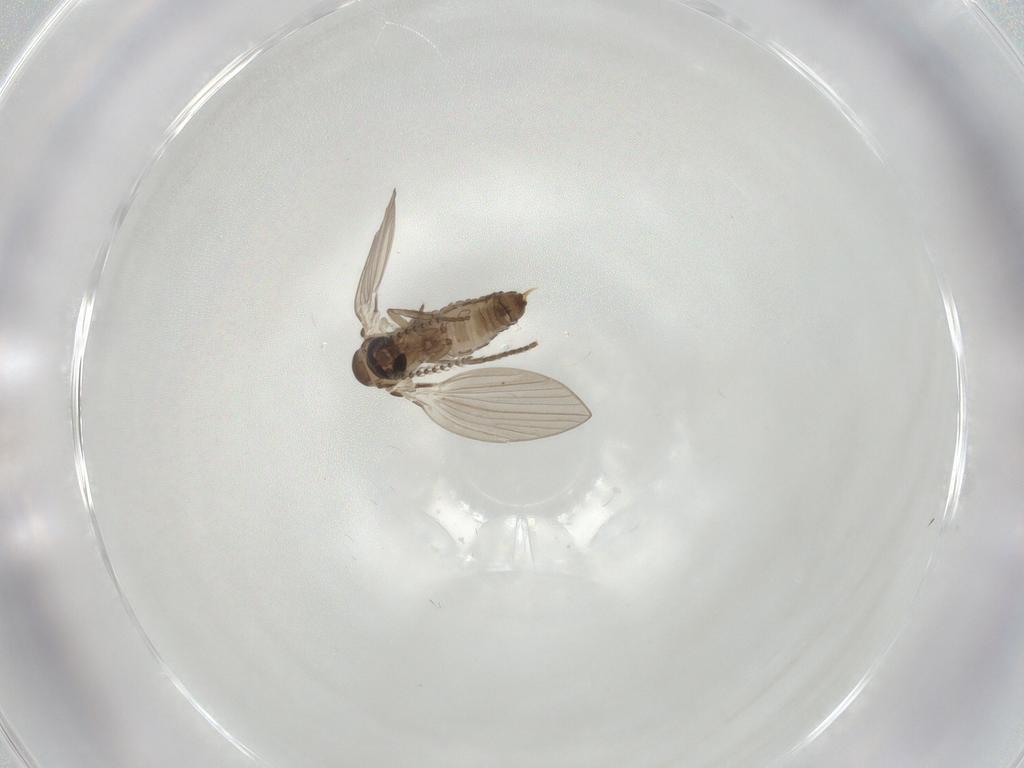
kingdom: Animalia
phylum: Arthropoda
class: Insecta
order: Diptera
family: Psychodidae
